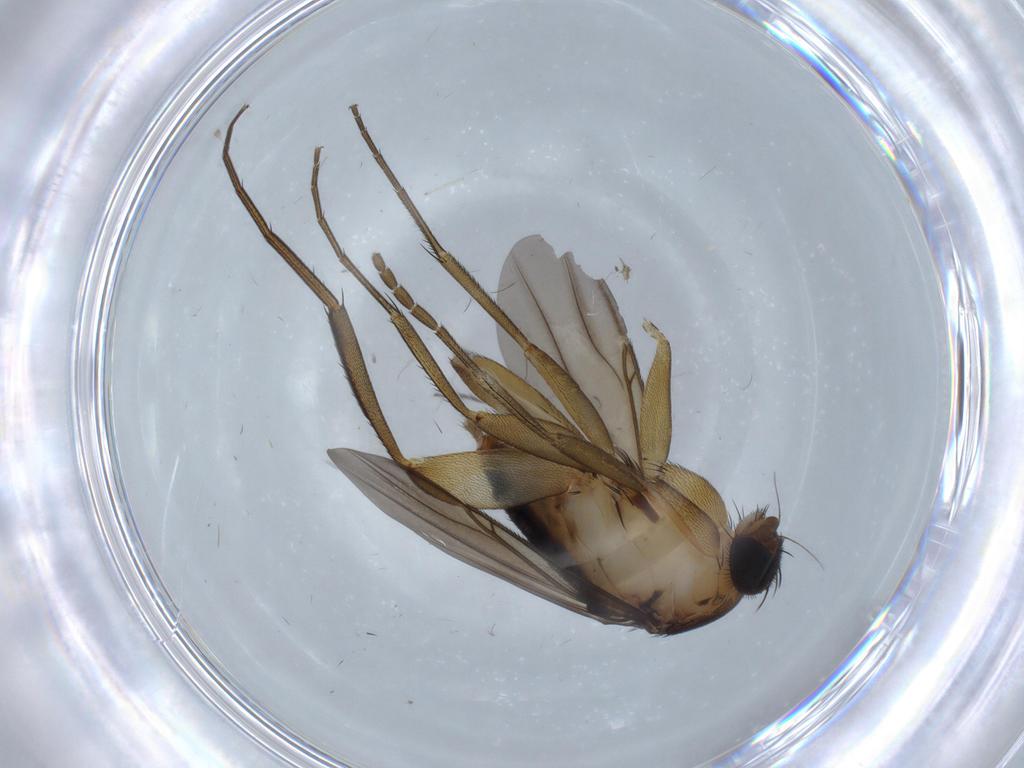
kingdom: Animalia
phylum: Arthropoda
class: Insecta
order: Diptera
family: Phoridae
